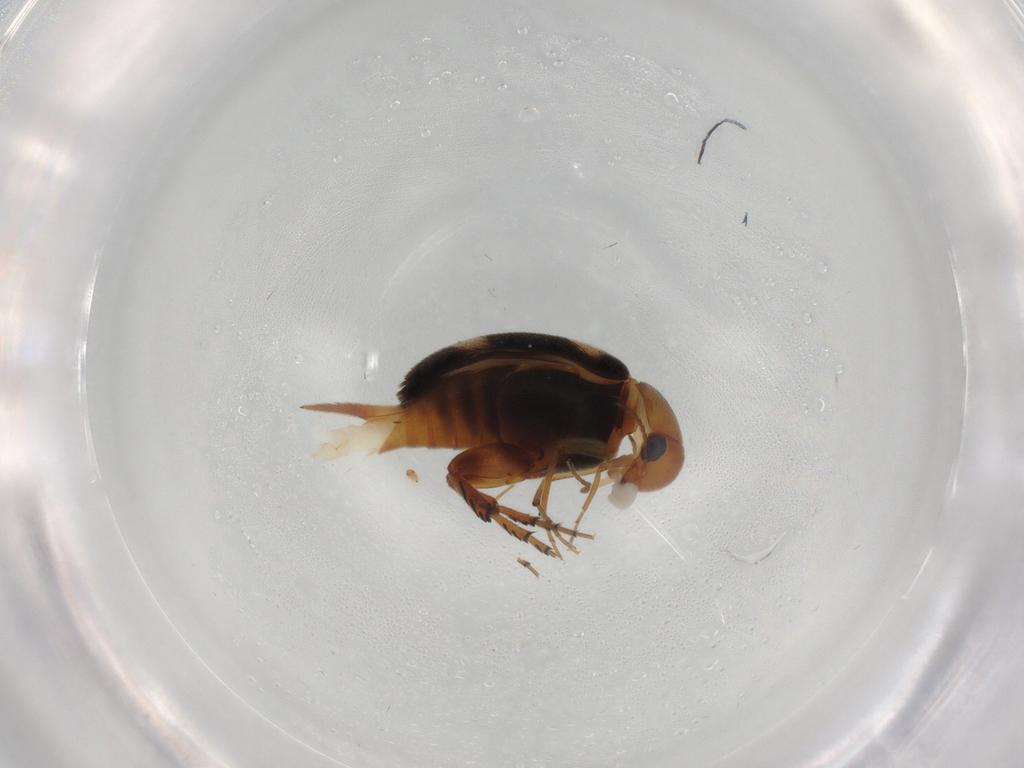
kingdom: Animalia
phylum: Arthropoda
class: Insecta
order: Coleoptera
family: Mordellidae
